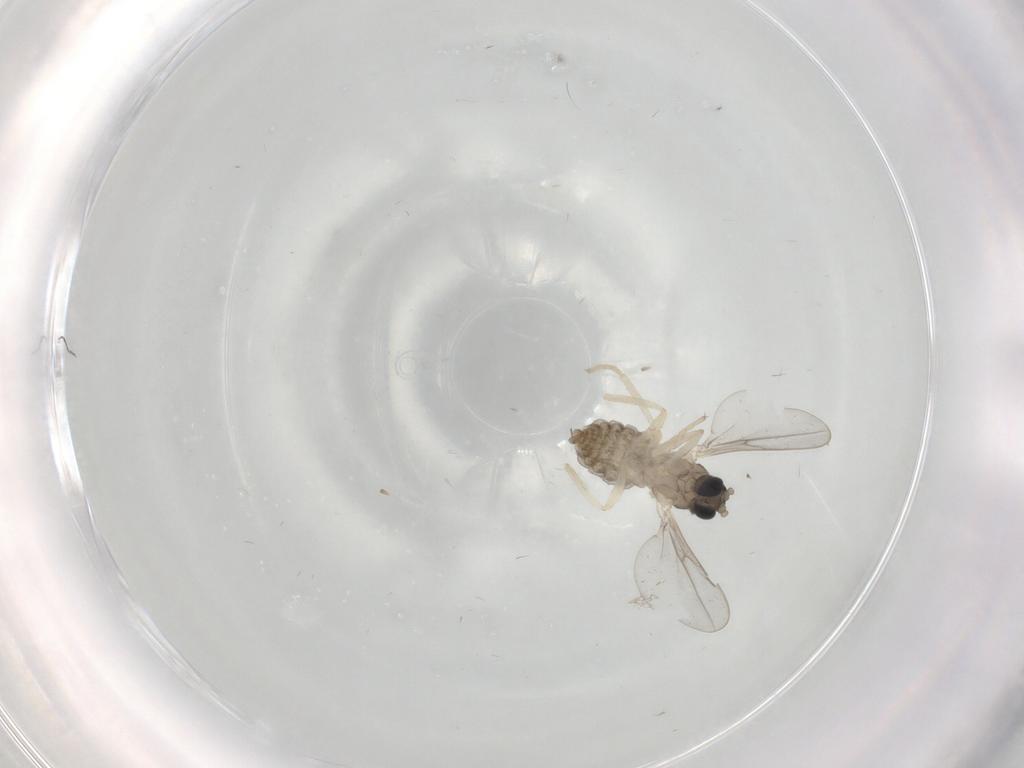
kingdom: Animalia
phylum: Arthropoda
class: Insecta
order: Diptera
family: Cecidomyiidae
